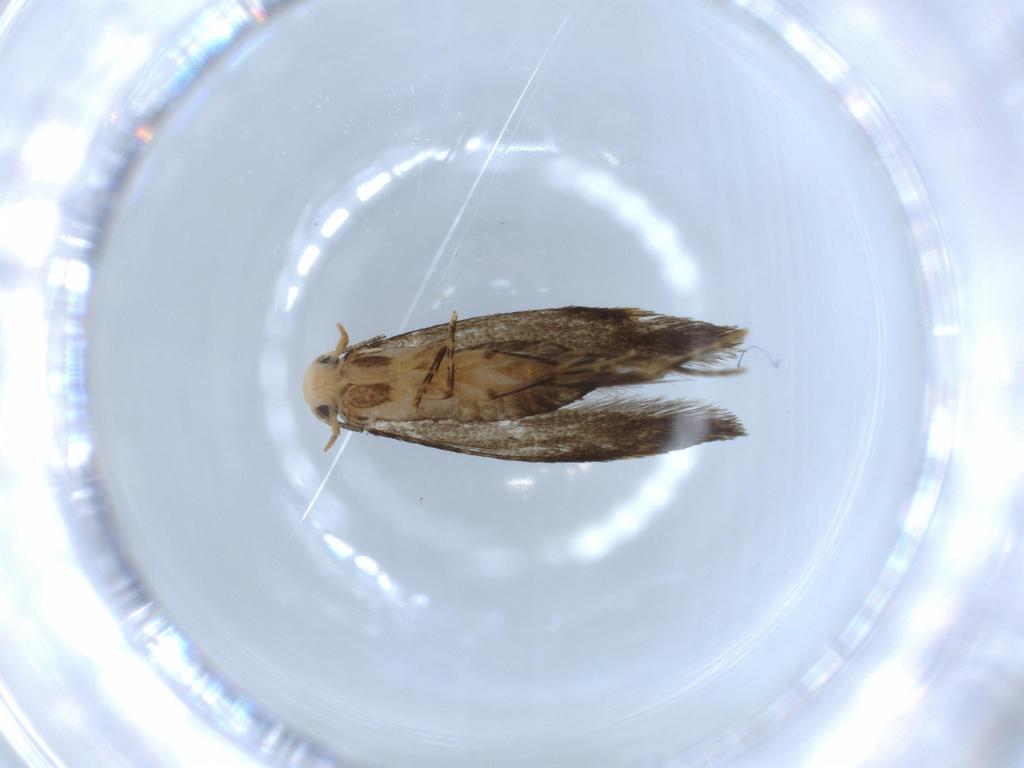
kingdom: Animalia
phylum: Arthropoda
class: Insecta
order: Lepidoptera
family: Tineidae
